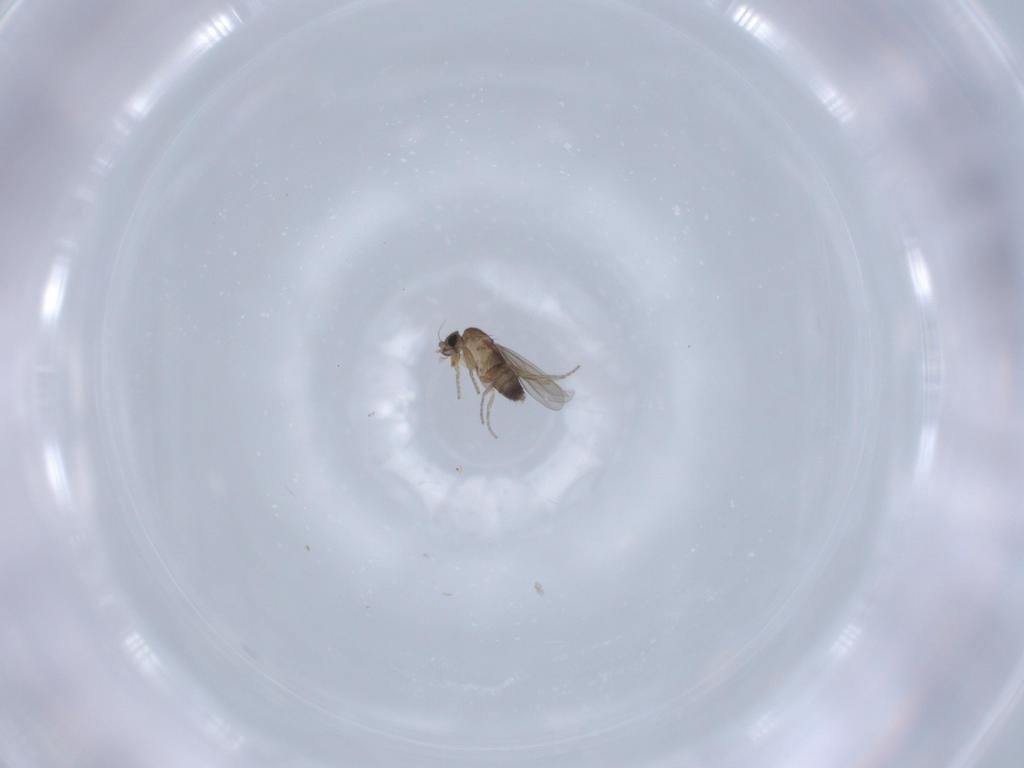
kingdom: Animalia
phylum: Arthropoda
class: Insecta
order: Diptera
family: Phoridae
